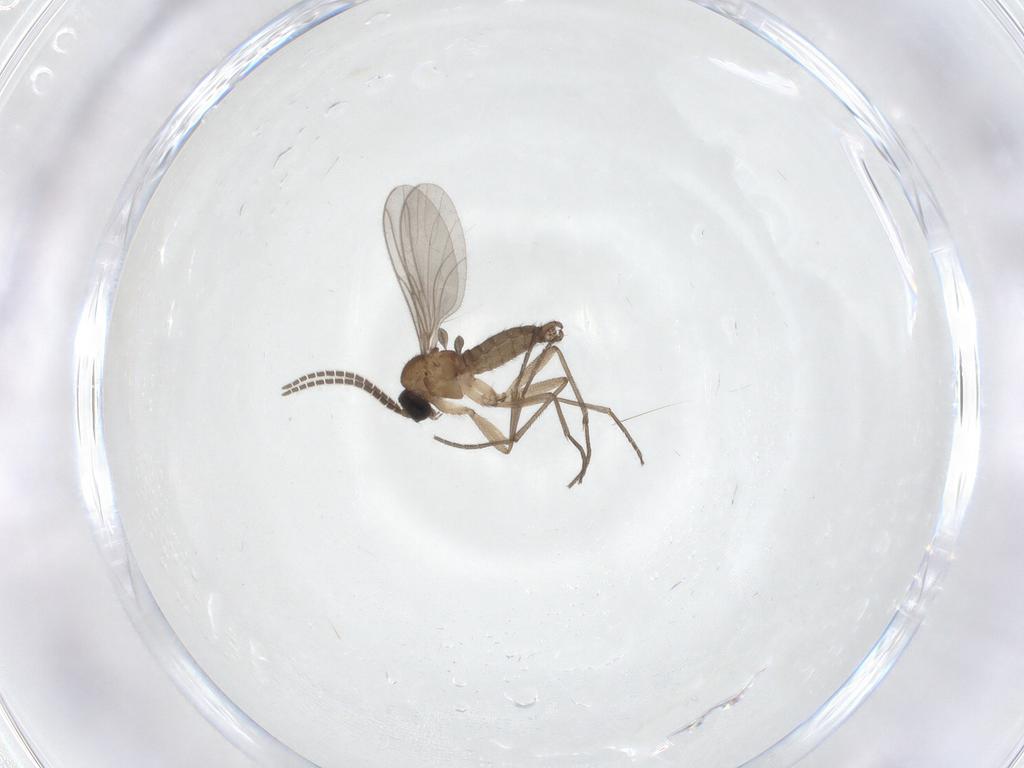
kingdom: Animalia
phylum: Arthropoda
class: Insecta
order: Diptera
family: Sciaridae
